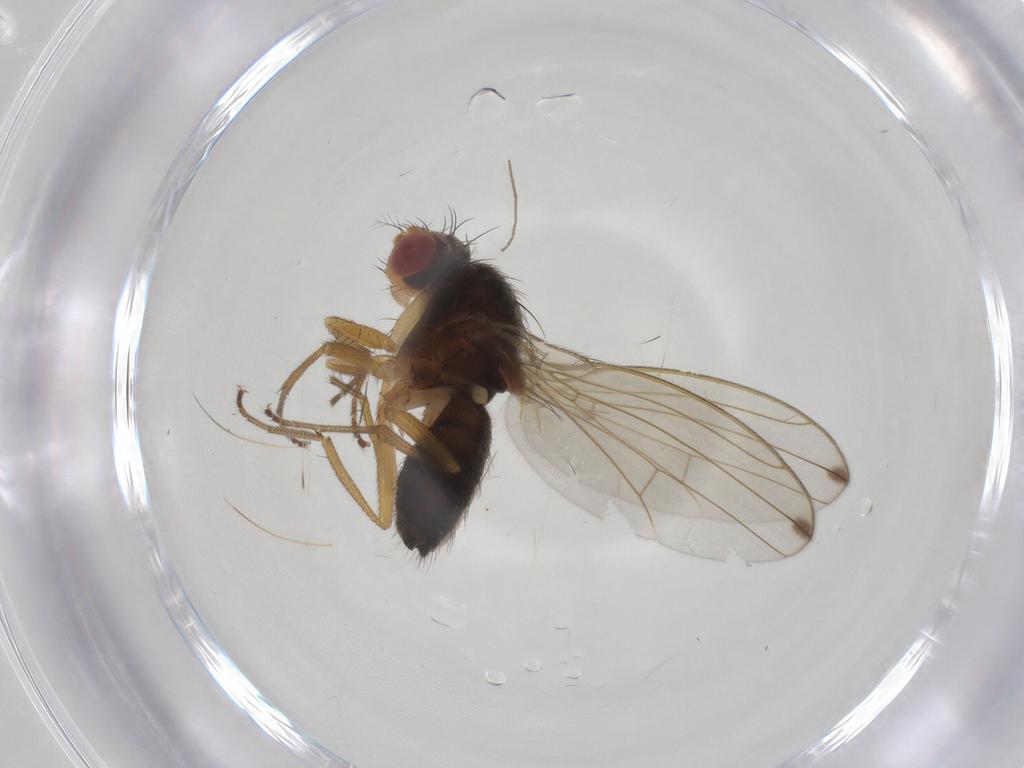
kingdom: Animalia
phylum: Arthropoda
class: Insecta
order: Diptera
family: Drosophilidae
